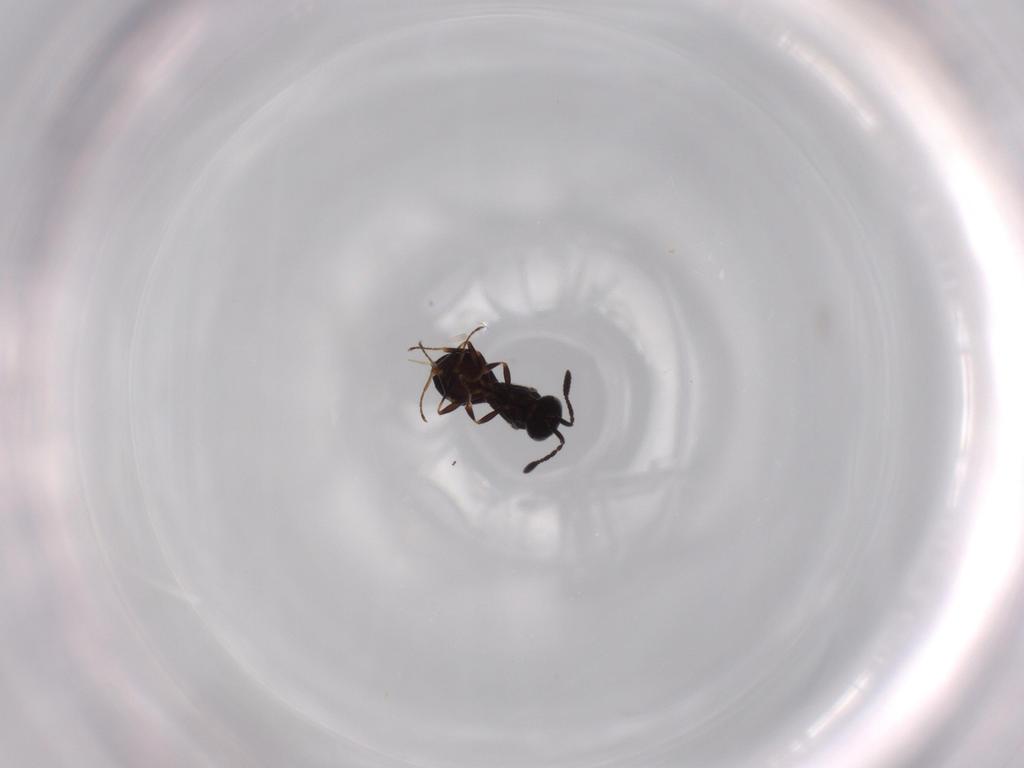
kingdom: Animalia
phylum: Arthropoda
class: Insecta
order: Hymenoptera
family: Scelionidae
